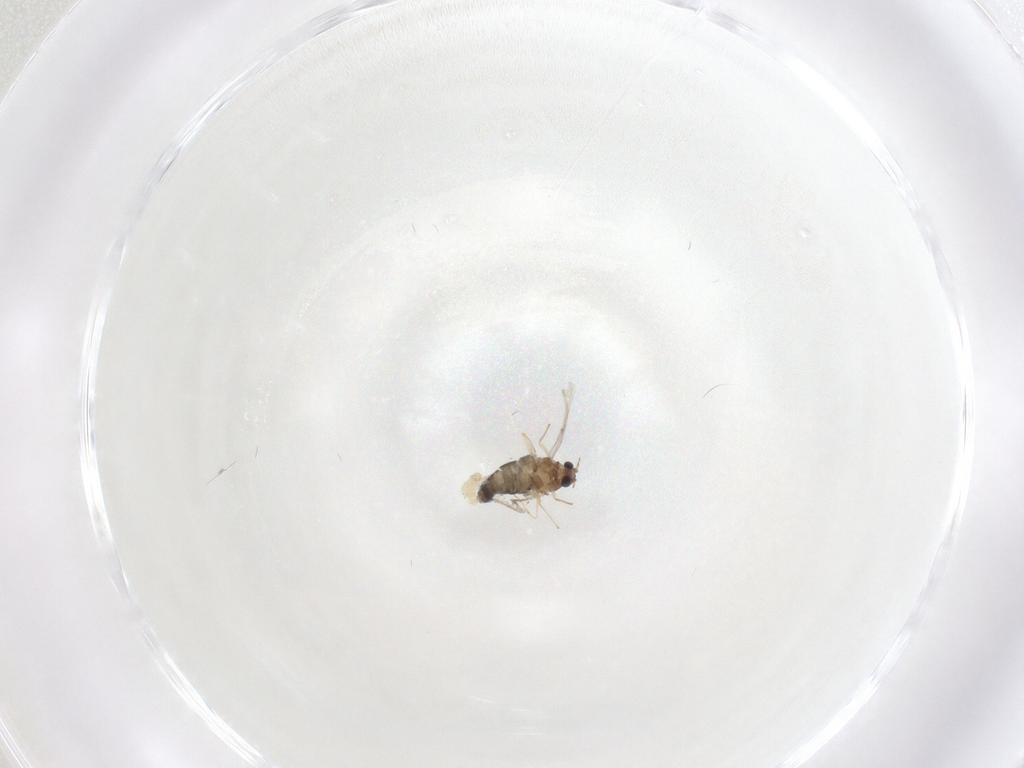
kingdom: Animalia
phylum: Arthropoda
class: Insecta
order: Diptera
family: Chironomidae
